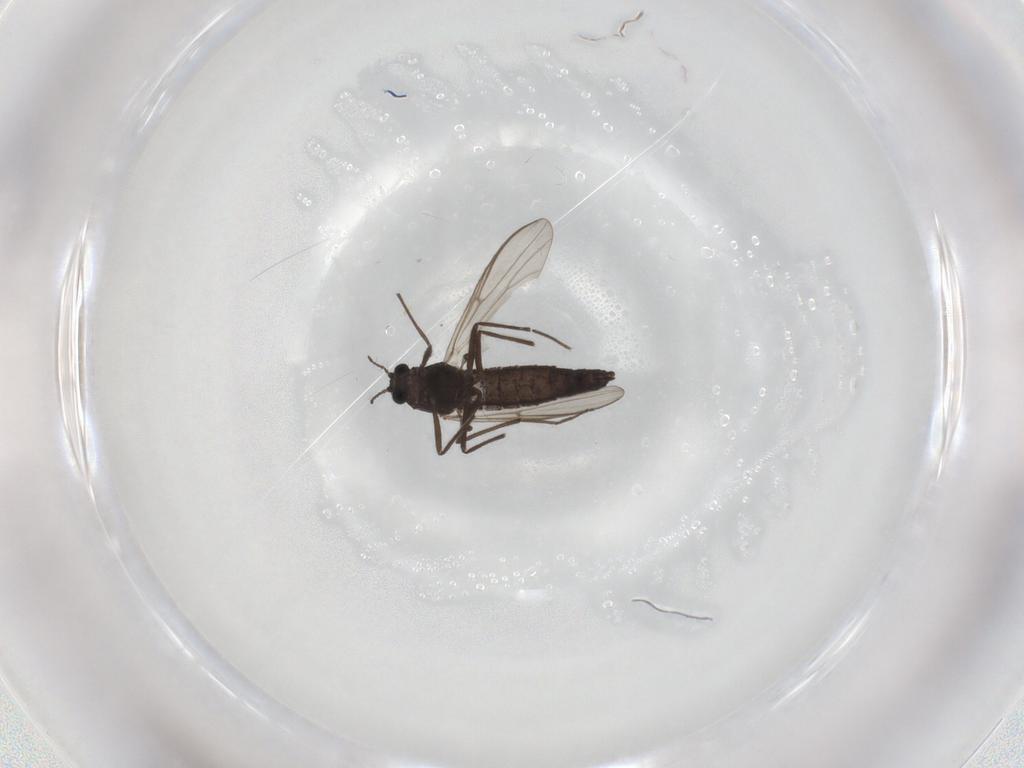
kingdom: Animalia
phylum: Arthropoda
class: Insecta
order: Diptera
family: Chironomidae
